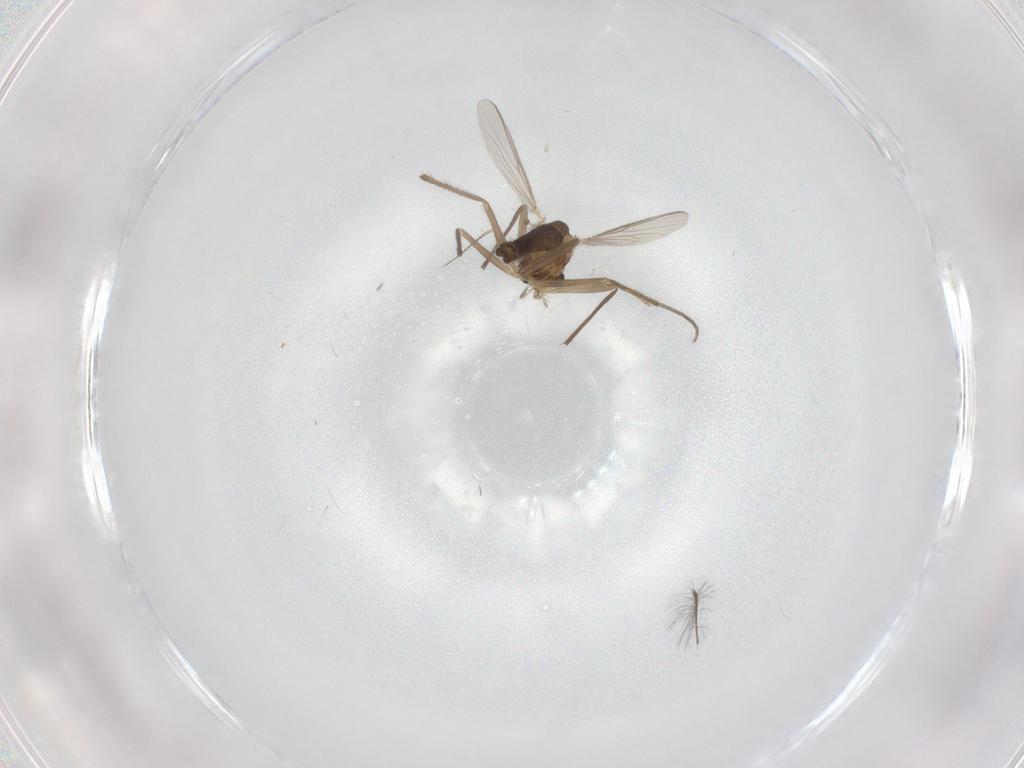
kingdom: Animalia
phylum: Arthropoda
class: Insecta
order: Diptera
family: Chironomidae
